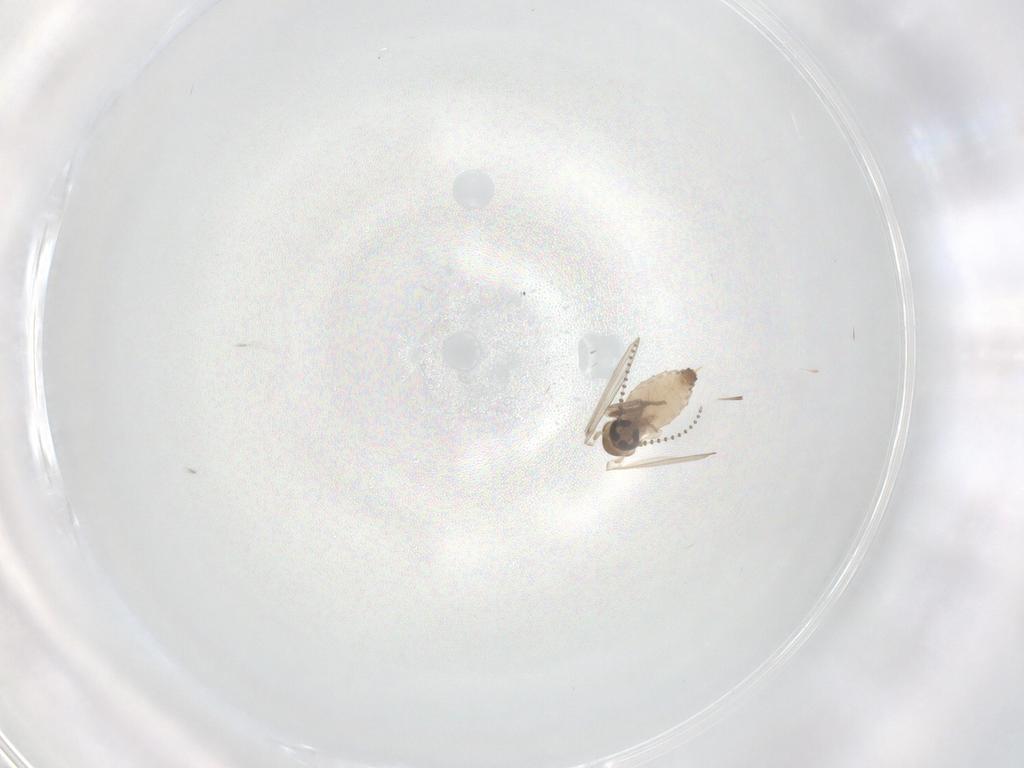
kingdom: Animalia
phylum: Arthropoda
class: Insecta
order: Diptera
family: Psychodidae
